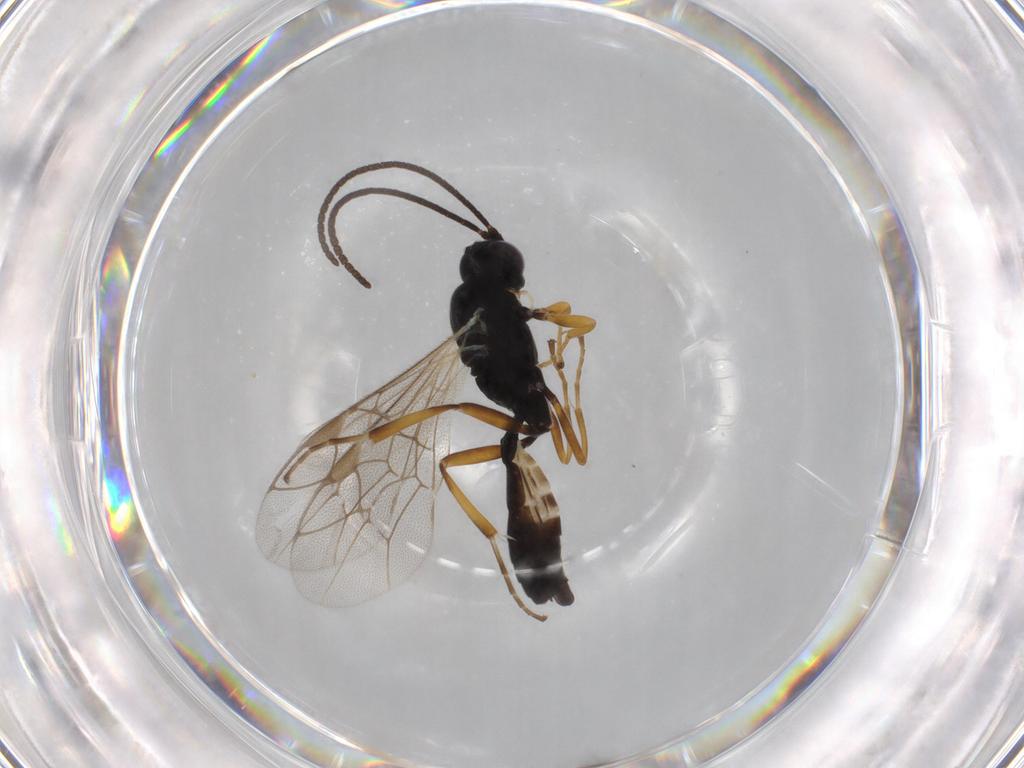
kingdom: Animalia
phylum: Arthropoda
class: Insecta
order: Hymenoptera
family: Ichneumonidae
